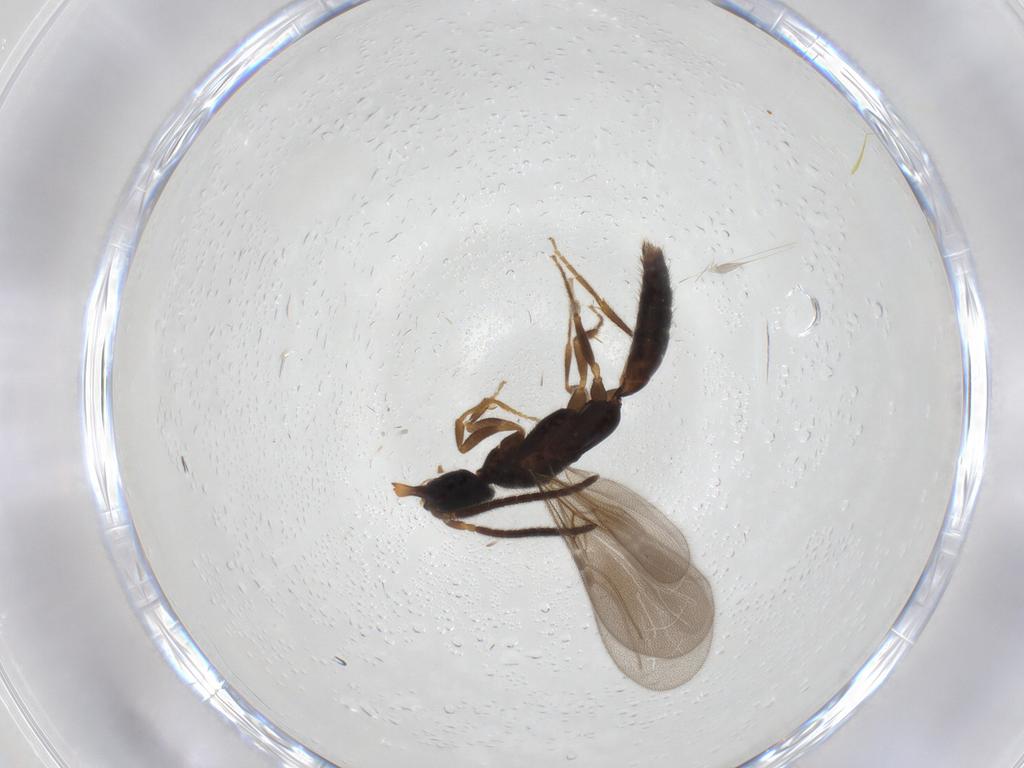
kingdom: Animalia
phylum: Arthropoda
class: Insecta
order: Hymenoptera
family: Bethylidae
